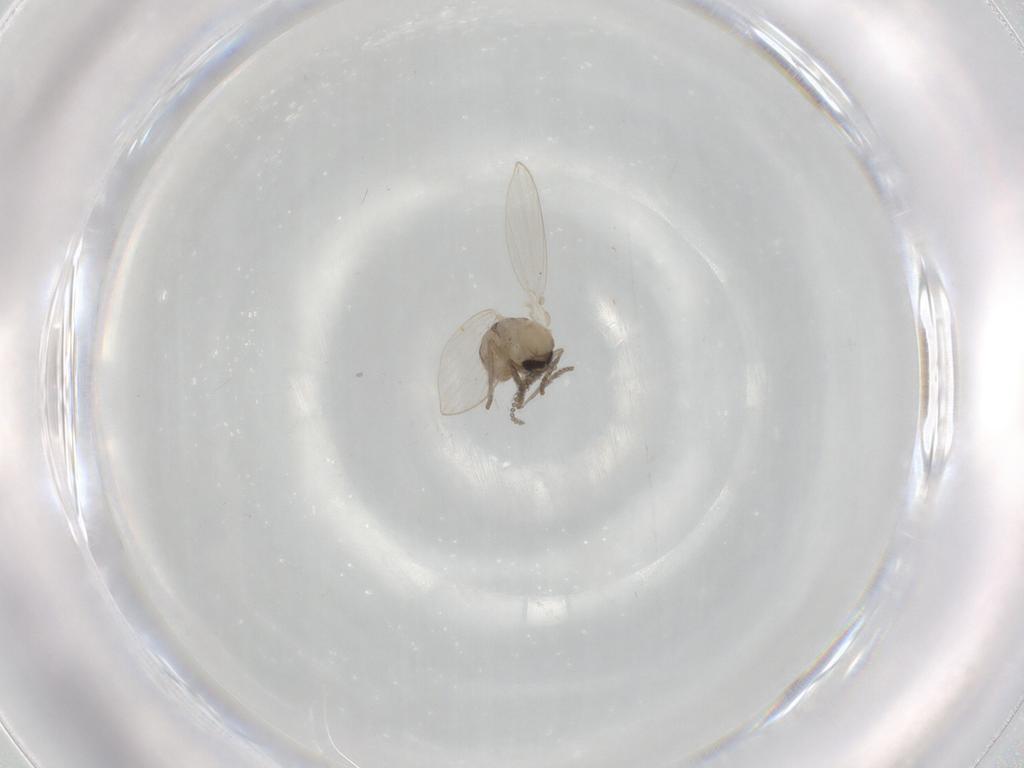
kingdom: Animalia
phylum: Arthropoda
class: Insecta
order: Diptera
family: Psychodidae
